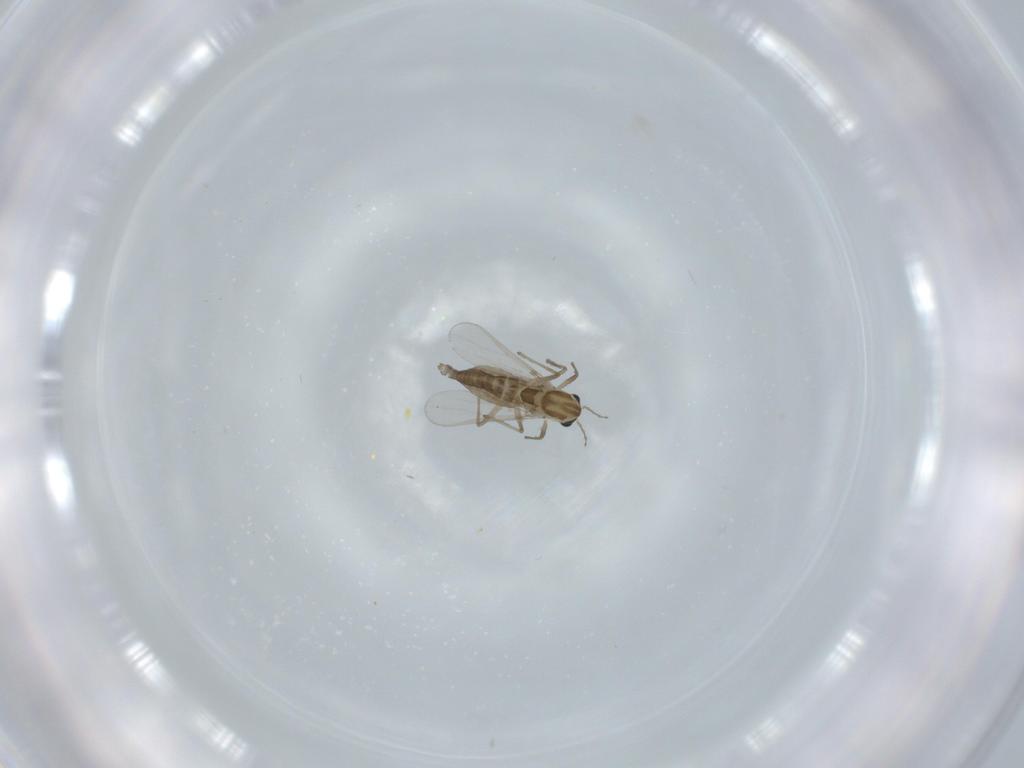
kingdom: Animalia
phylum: Arthropoda
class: Insecta
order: Diptera
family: Chironomidae
